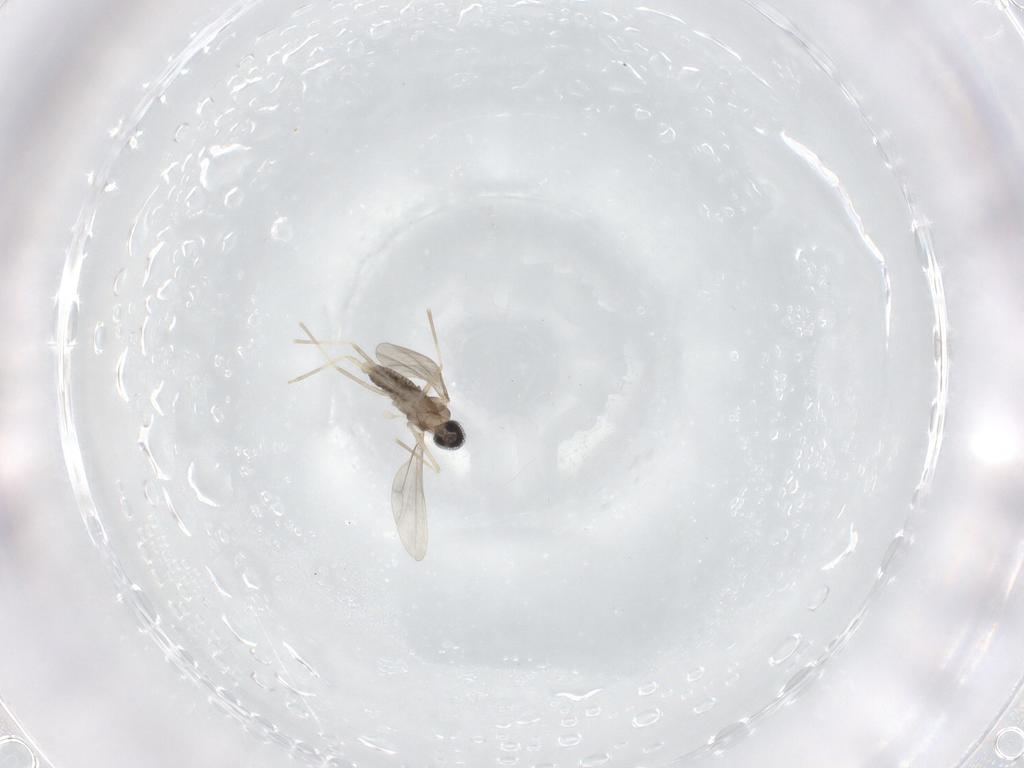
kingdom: Animalia
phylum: Arthropoda
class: Insecta
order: Diptera
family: Cecidomyiidae
